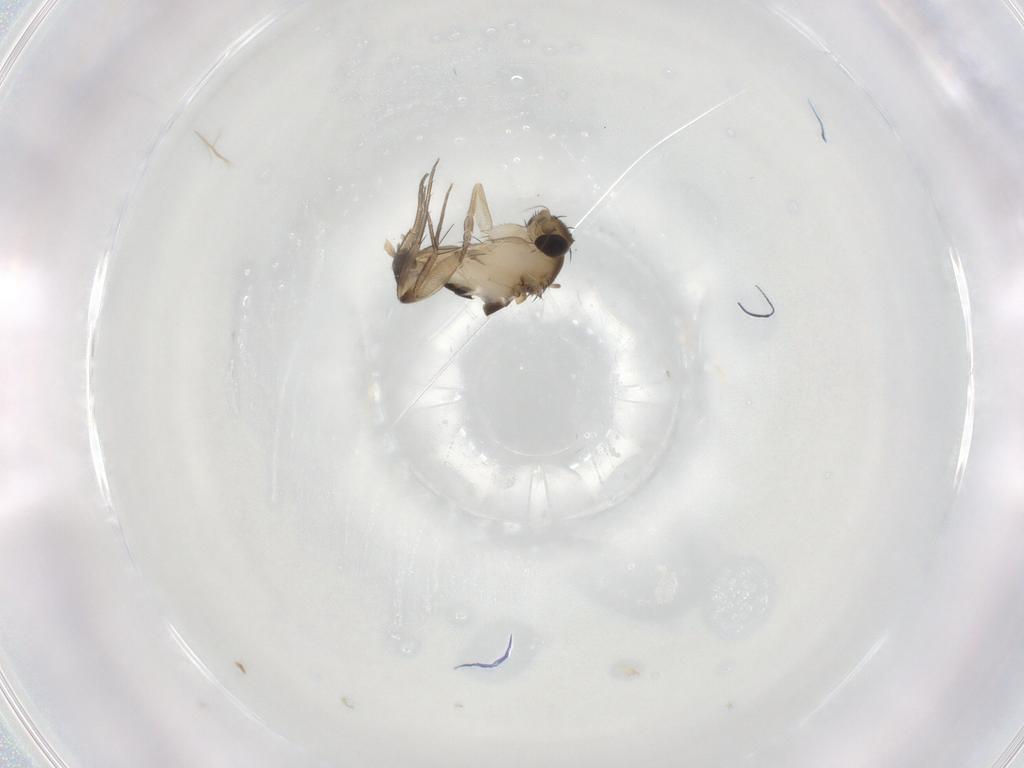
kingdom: Animalia
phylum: Arthropoda
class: Insecta
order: Diptera
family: Phoridae
